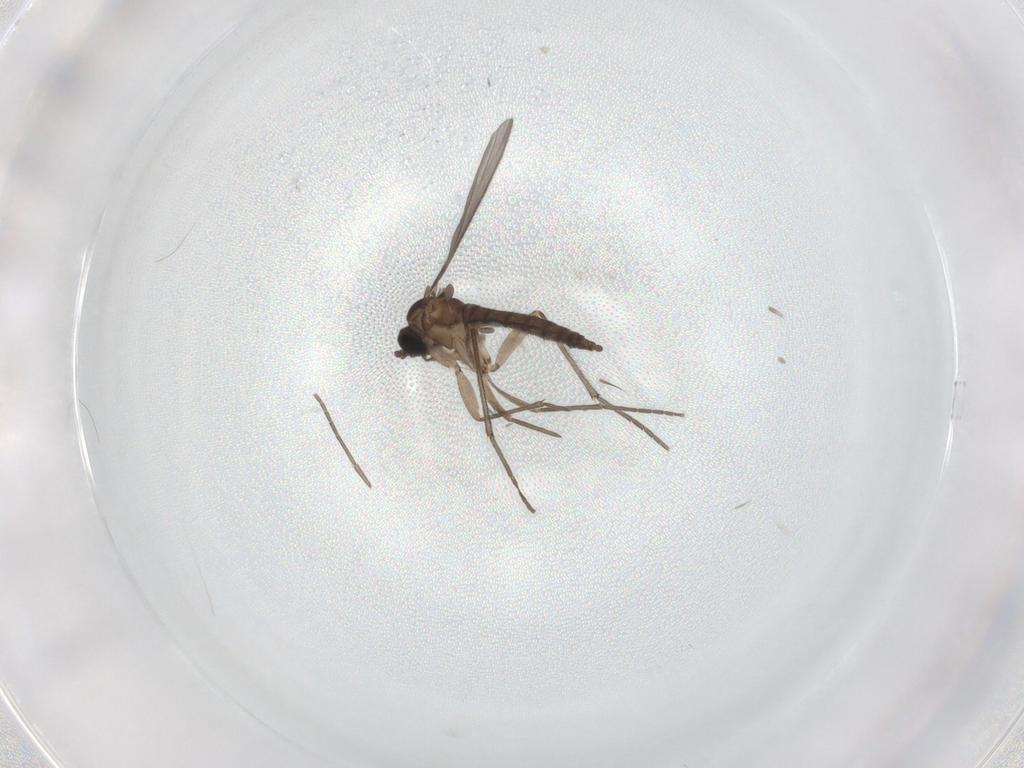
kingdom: Animalia
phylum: Arthropoda
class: Insecta
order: Diptera
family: Sciaridae
